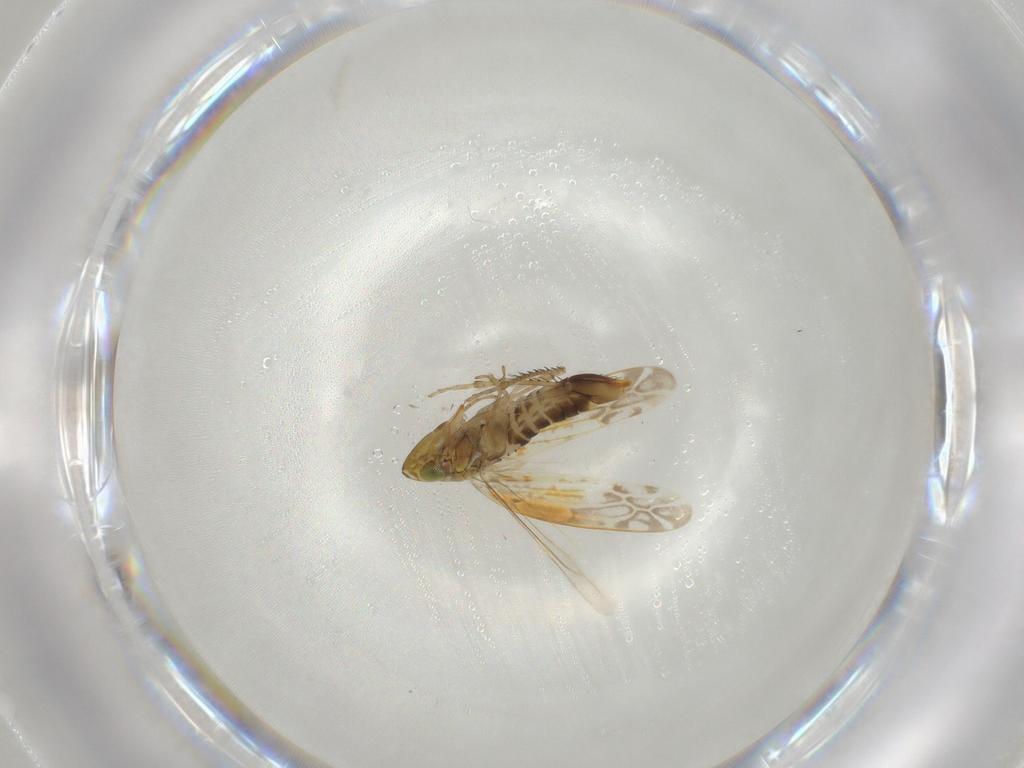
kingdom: Animalia
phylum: Arthropoda
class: Insecta
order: Hemiptera
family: Cicadellidae
